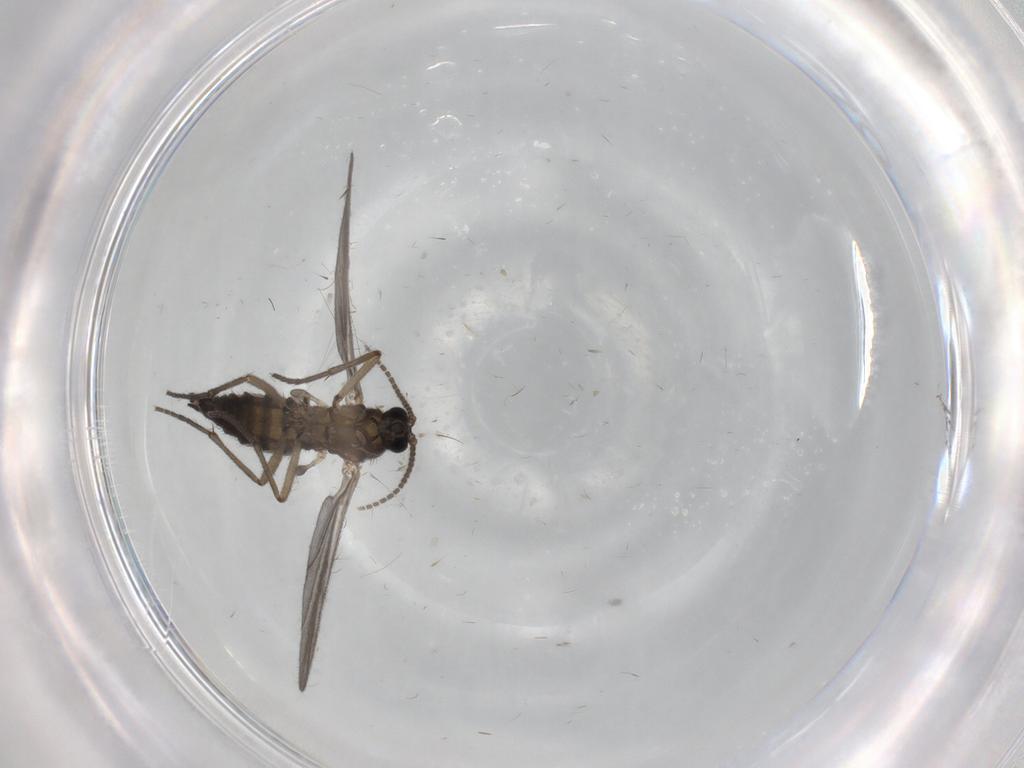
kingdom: Animalia
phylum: Arthropoda
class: Insecta
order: Diptera
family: Sciaridae
